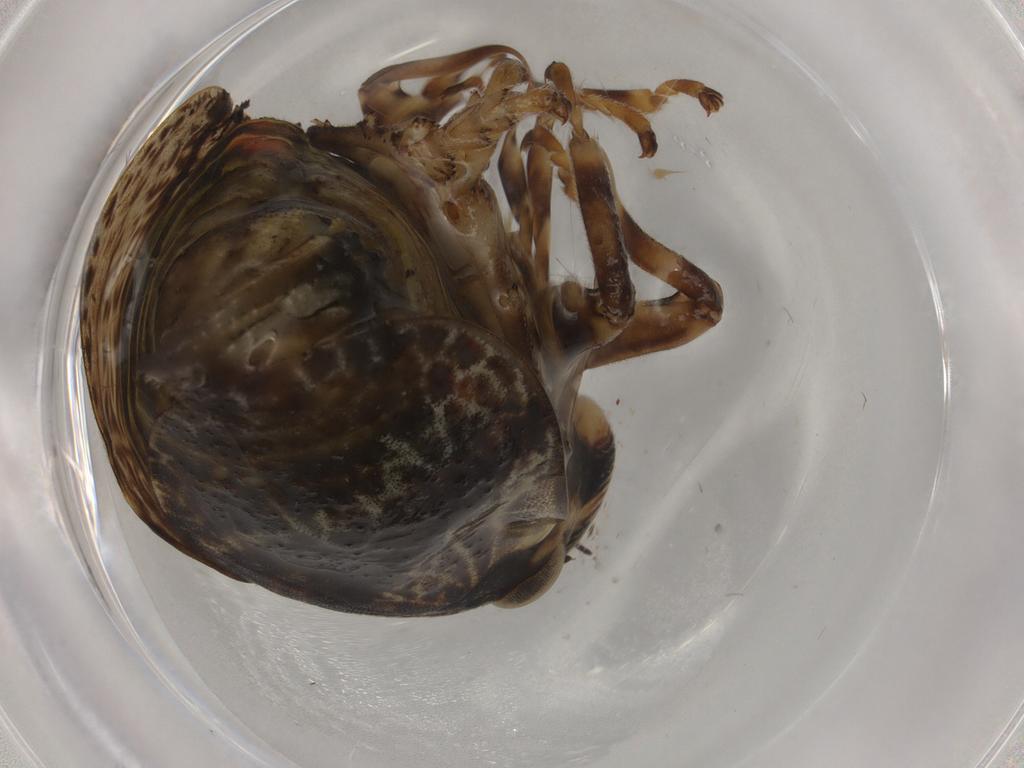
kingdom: Animalia
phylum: Arthropoda
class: Insecta
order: Hemiptera
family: Aphrophoridae
